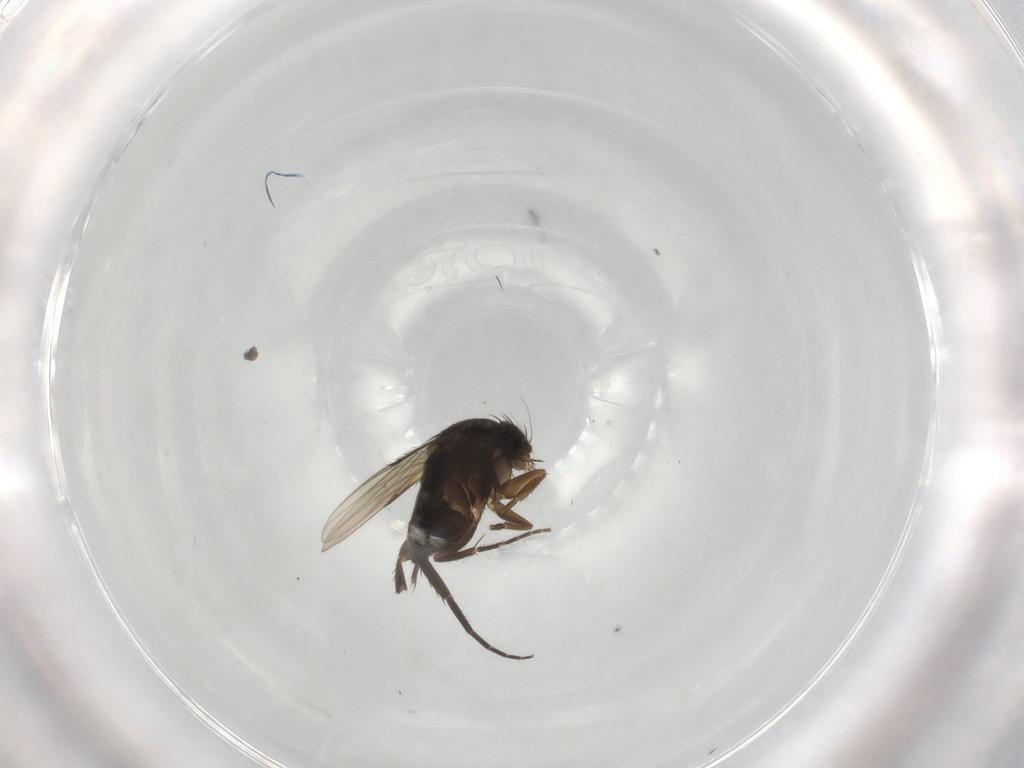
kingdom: Animalia
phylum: Arthropoda
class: Insecta
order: Diptera
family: Phoridae
